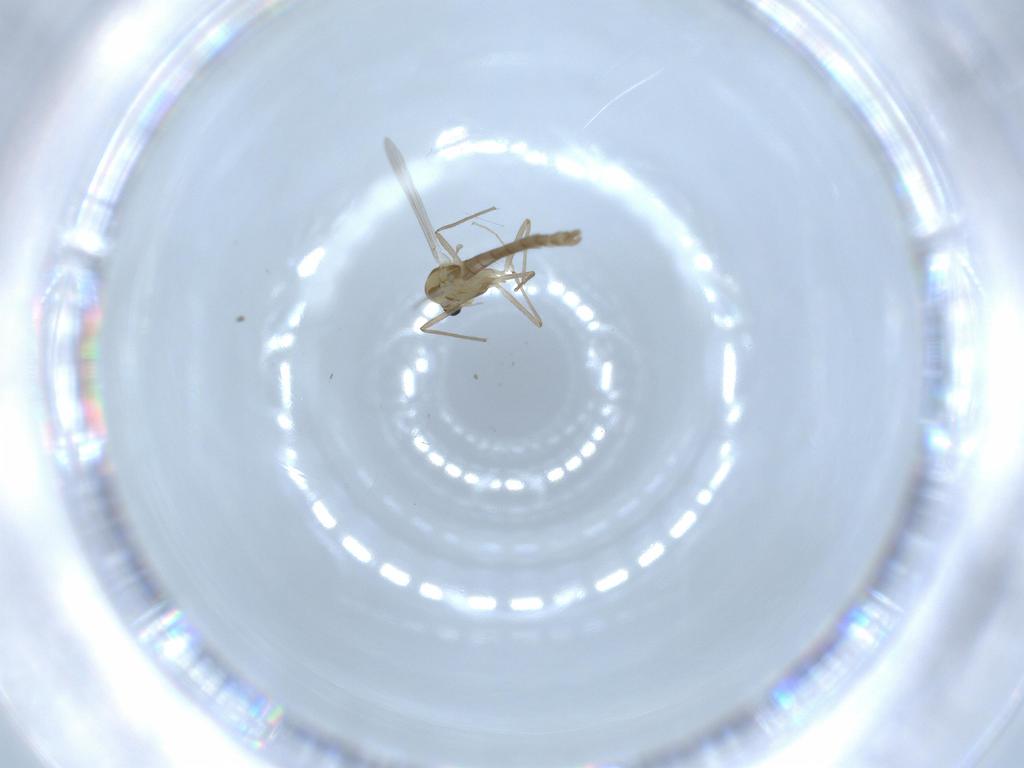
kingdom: Animalia
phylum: Arthropoda
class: Insecta
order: Diptera
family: Chironomidae
